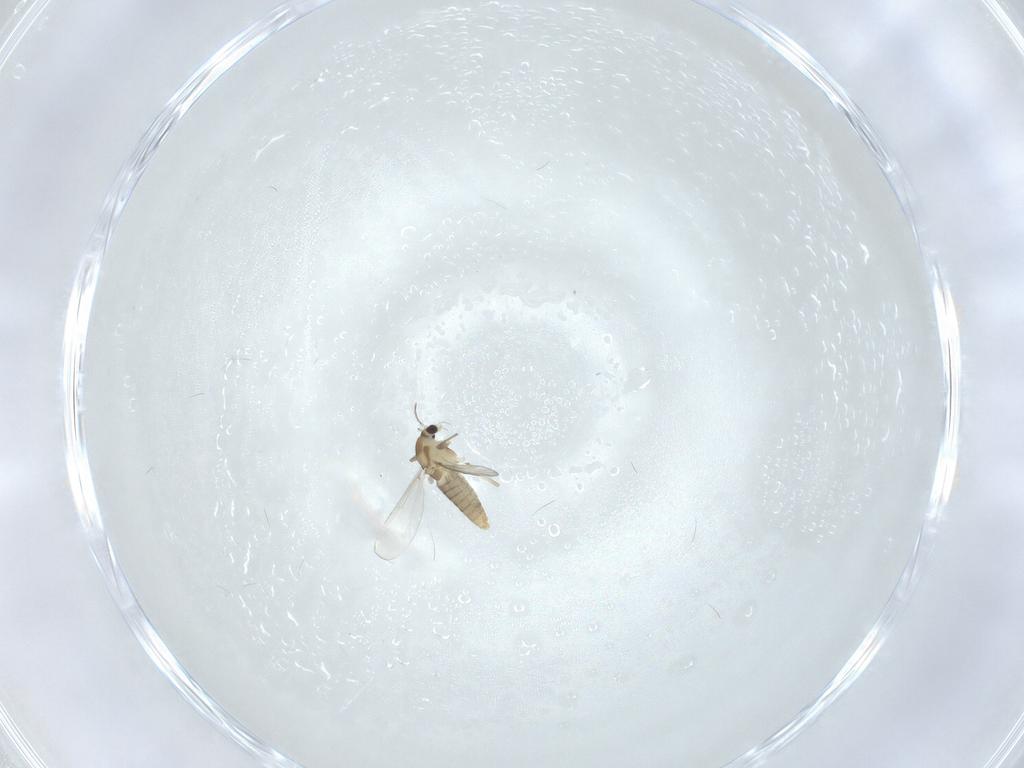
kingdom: Animalia
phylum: Arthropoda
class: Insecta
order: Diptera
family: Chironomidae
